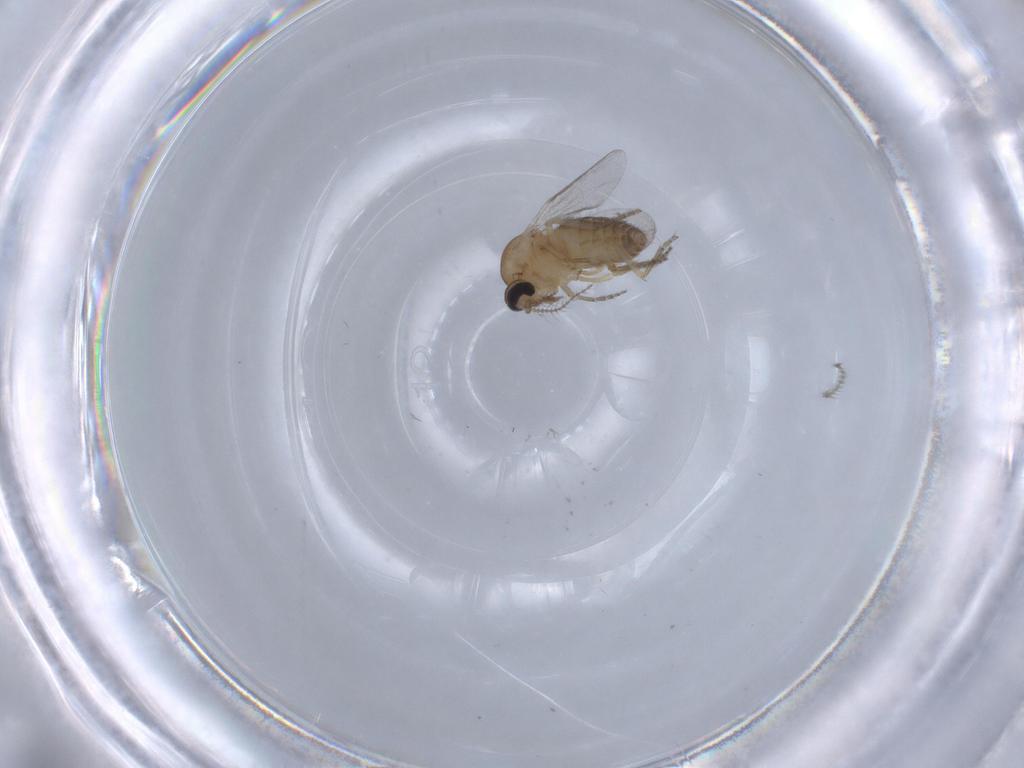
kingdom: Animalia
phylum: Arthropoda
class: Insecta
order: Diptera
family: Ceratopogonidae
